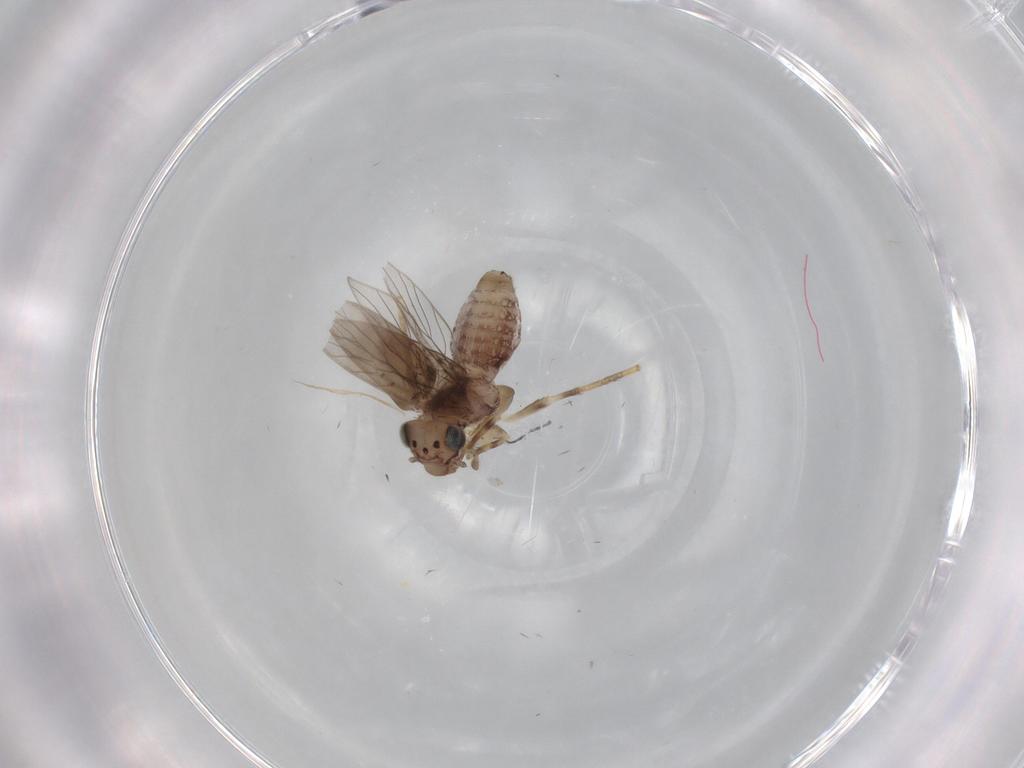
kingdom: Animalia
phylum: Arthropoda
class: Insecta
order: Psocodea
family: Lepidopsocidae
